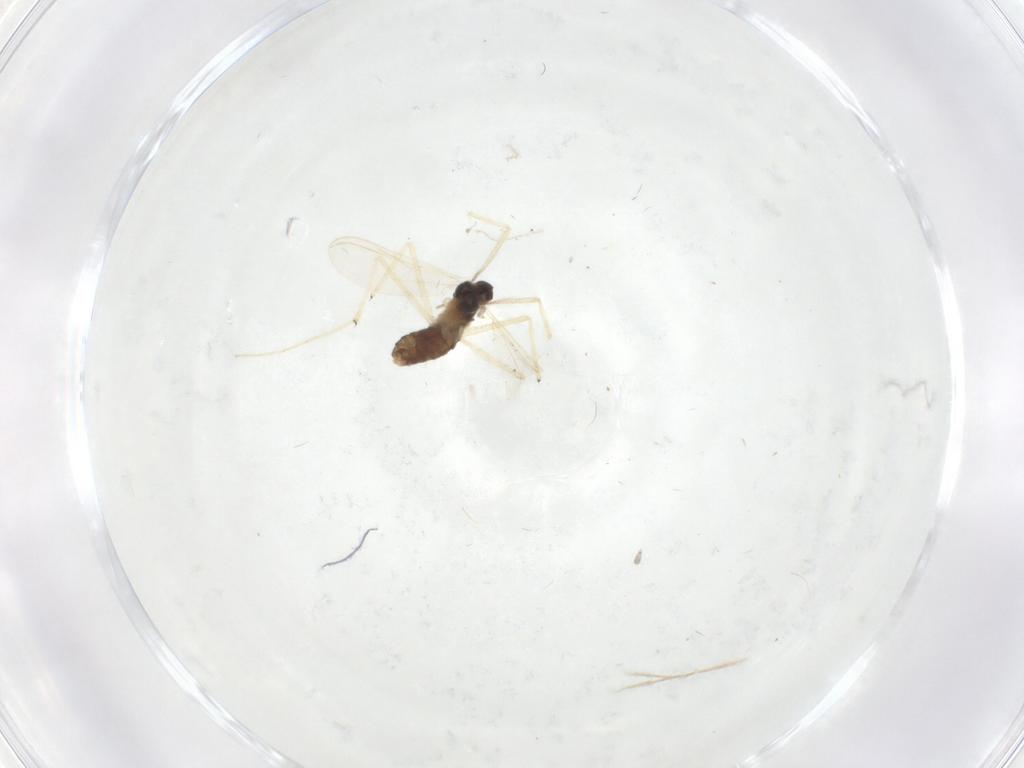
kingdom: Animalia
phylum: Arthropoda
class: Insecta
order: Diptera
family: Chironomidae
